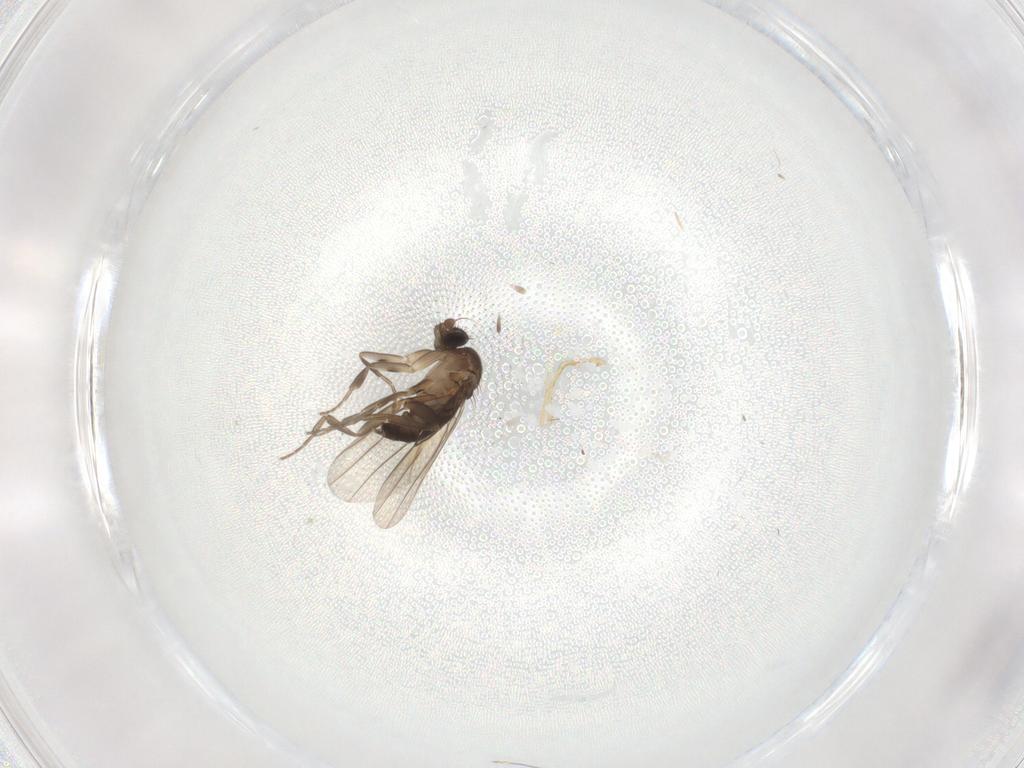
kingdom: Animalia
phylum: Arthropoda
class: Insecta
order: Diptera
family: Phoridae
